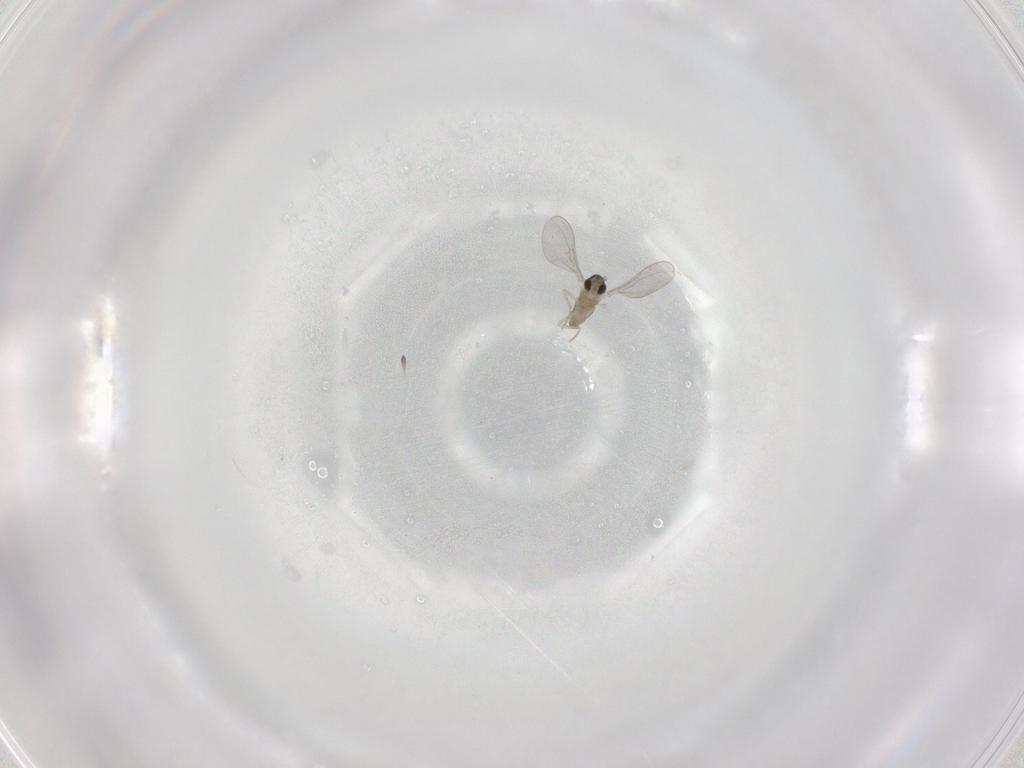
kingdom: Animalia
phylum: Arthropoda
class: Insecta
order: Diptera
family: Cecidomyiidae
